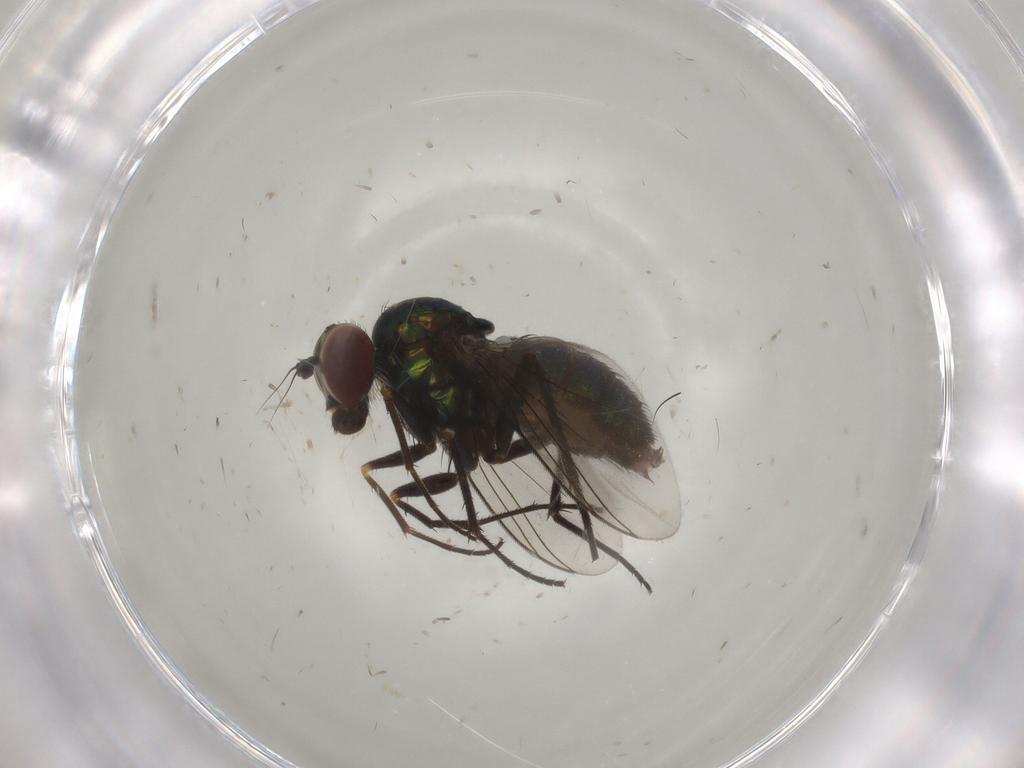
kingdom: Animalia
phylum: Arthropoda
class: Insecta
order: Diptera
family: Dolichopodidae
